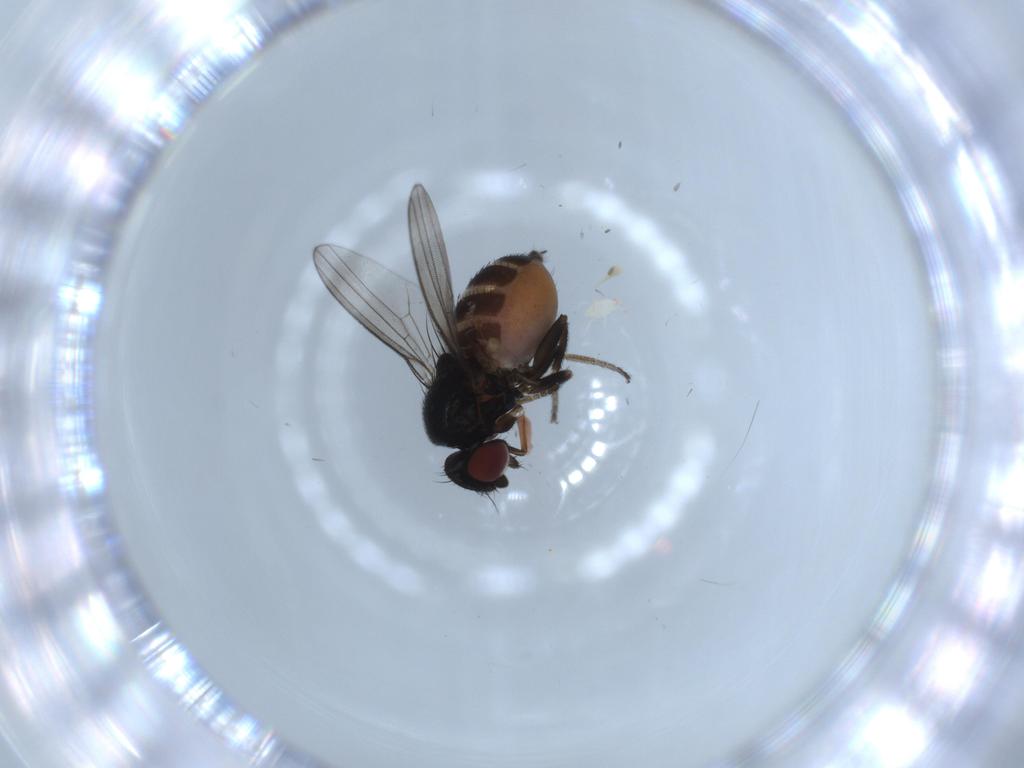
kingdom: Animalia
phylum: Arthropoda
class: Insecta
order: Diptera
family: Milichiidae
